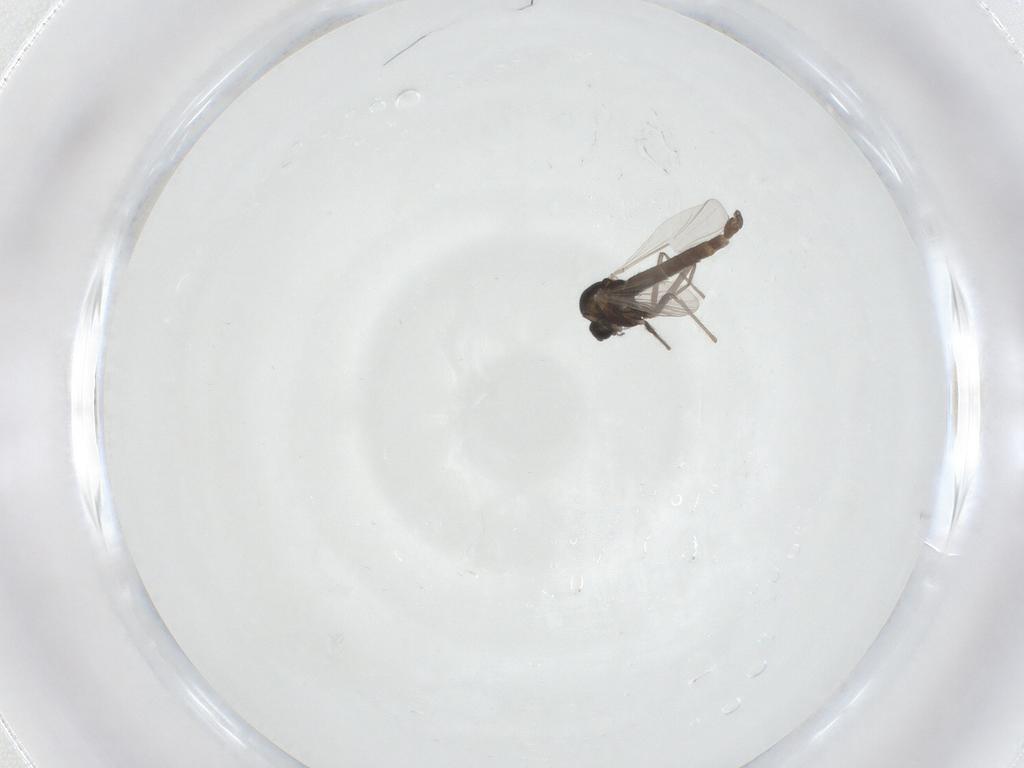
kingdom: Animalia
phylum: Arthropoda
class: Insecta
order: Diptera
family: Chironomidae
